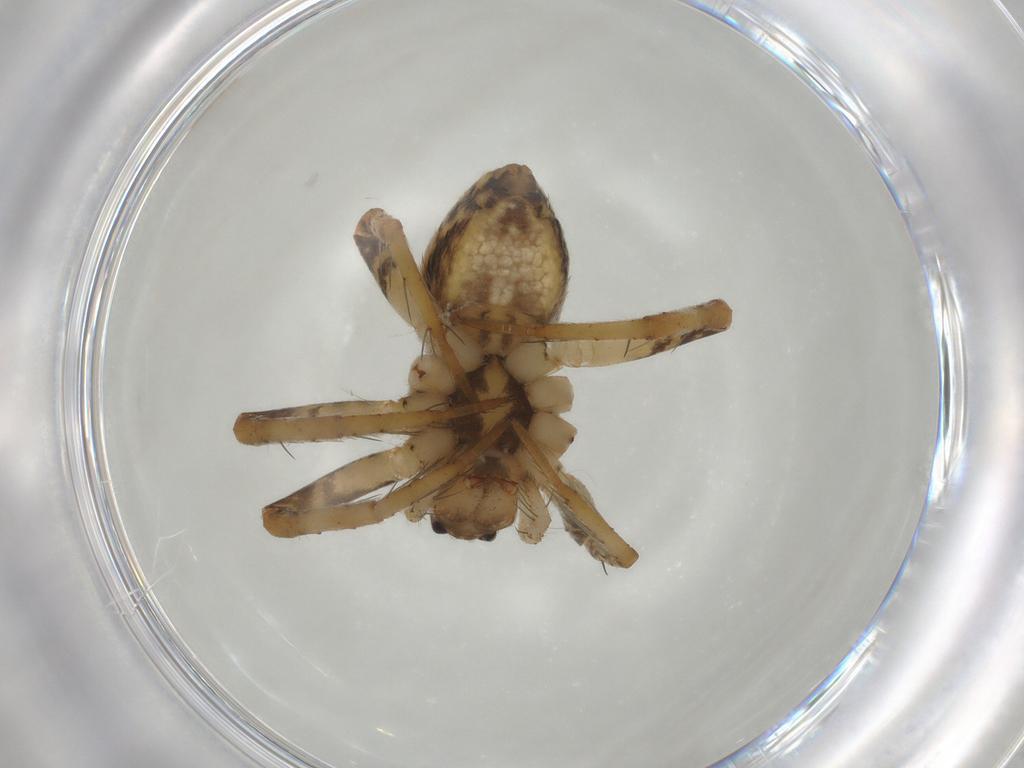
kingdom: Animalia
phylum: Arthropoda
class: Arachnida
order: Araneae
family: Pisauridae
